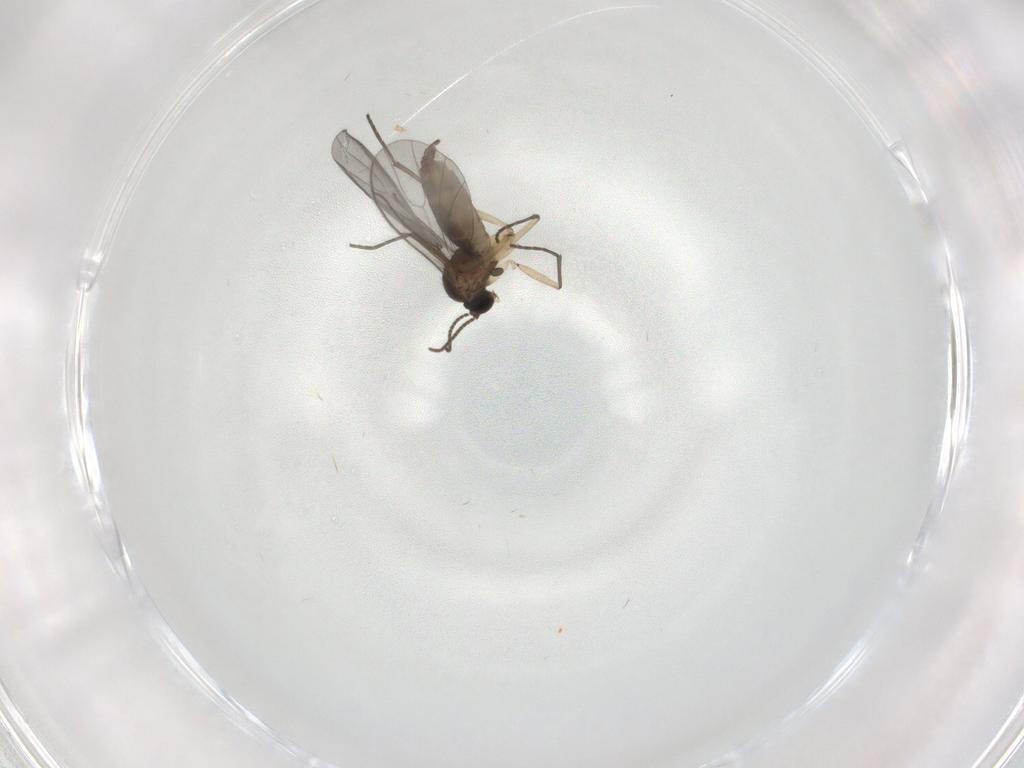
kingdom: Animalia
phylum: Arthropoda
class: Insecta
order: Diptera
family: Sciaridae
